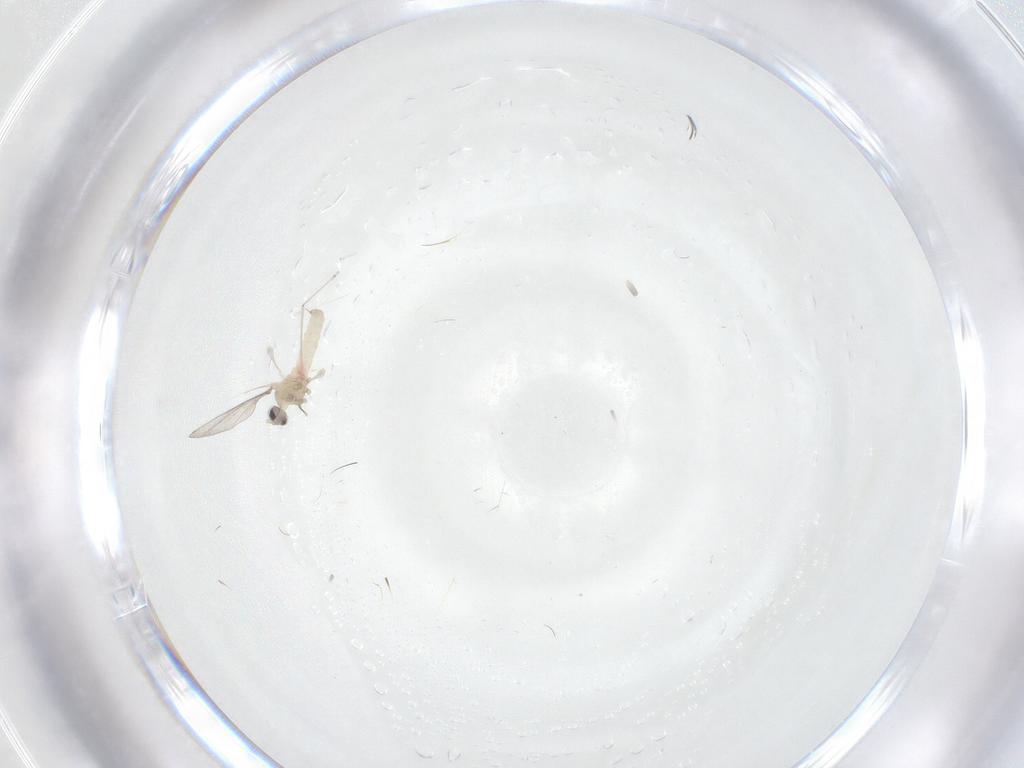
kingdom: Animalia
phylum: Arthropoda
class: Insecta
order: Diptera
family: Cecidomyiidae
